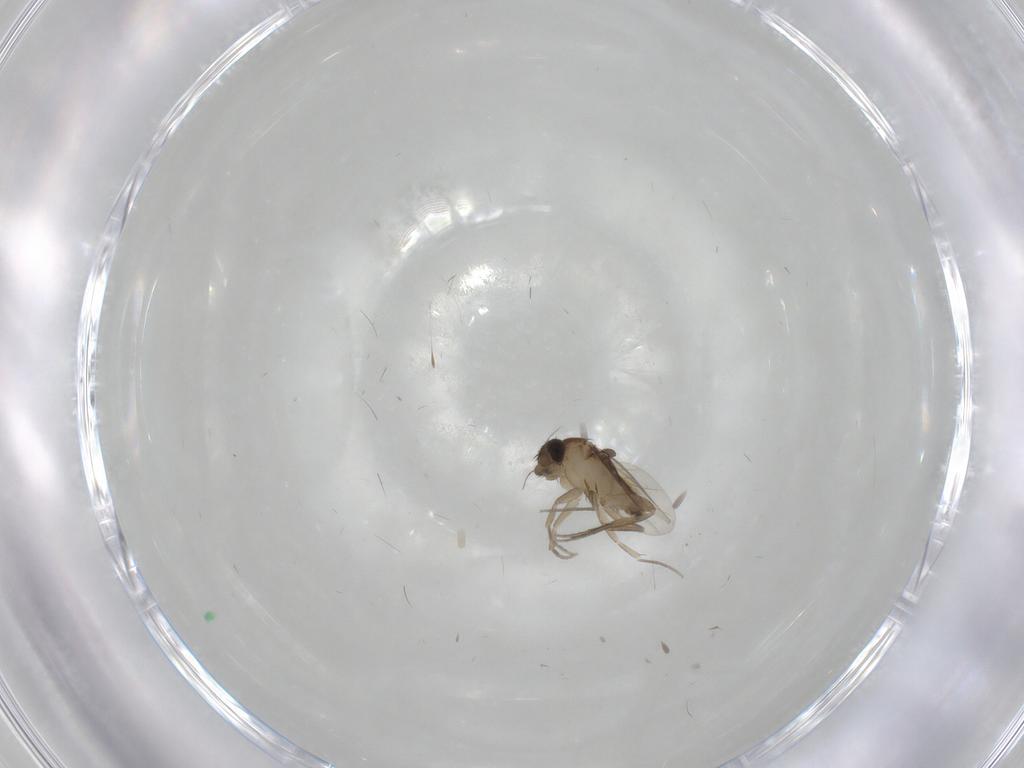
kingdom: Animalia
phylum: Arthropoda
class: Insecta
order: Diptera
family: Phoridae
